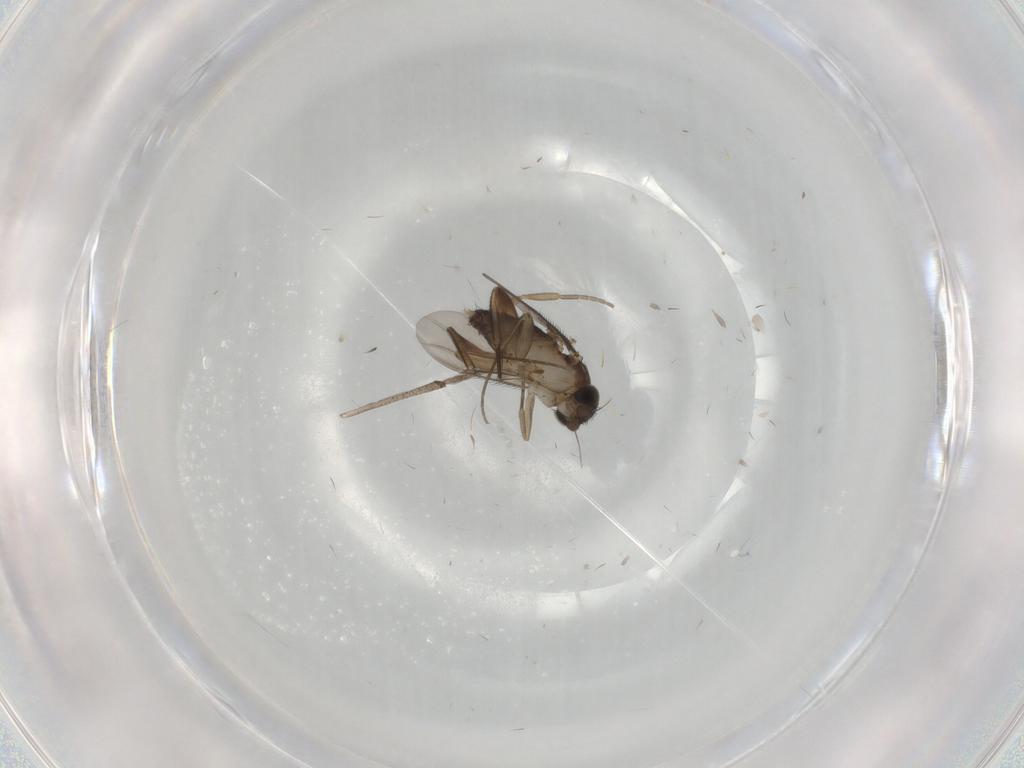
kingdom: Animalia
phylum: Arthropoda
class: Insecta
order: Diptera
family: Phoridae
